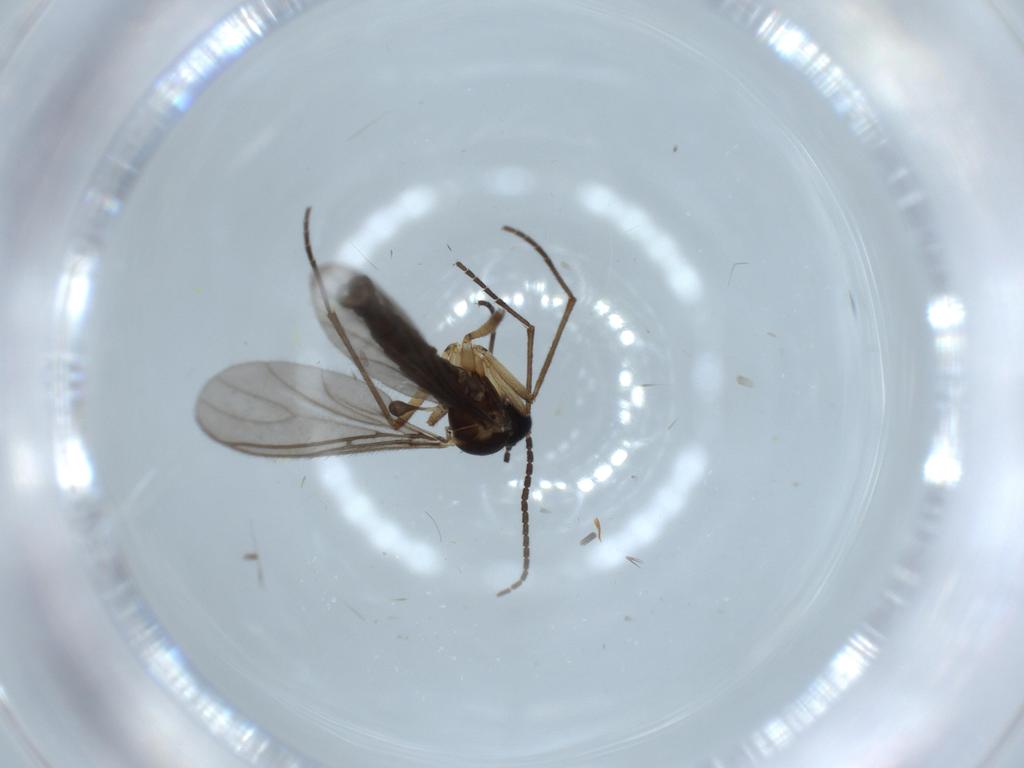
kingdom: Animalia
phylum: Arthropoda
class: Insecta
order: Diptera
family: Sciaridae
